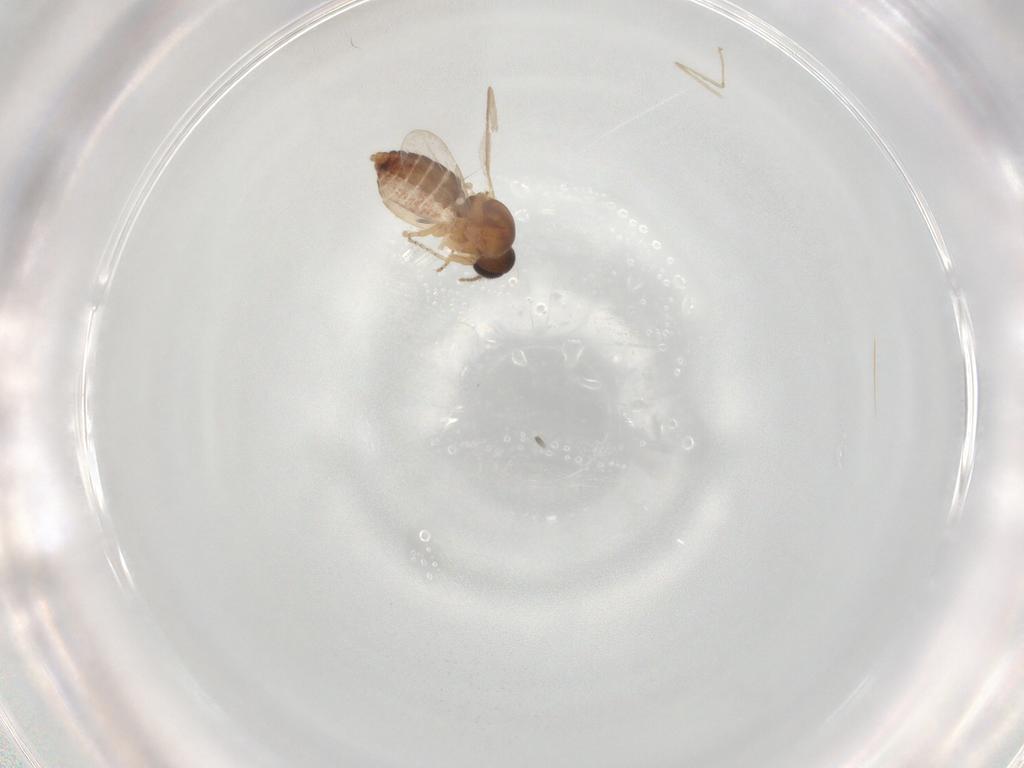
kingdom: Animalia
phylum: Arthropoda
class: Insecta
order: Diptera
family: Ceratopogonidae
